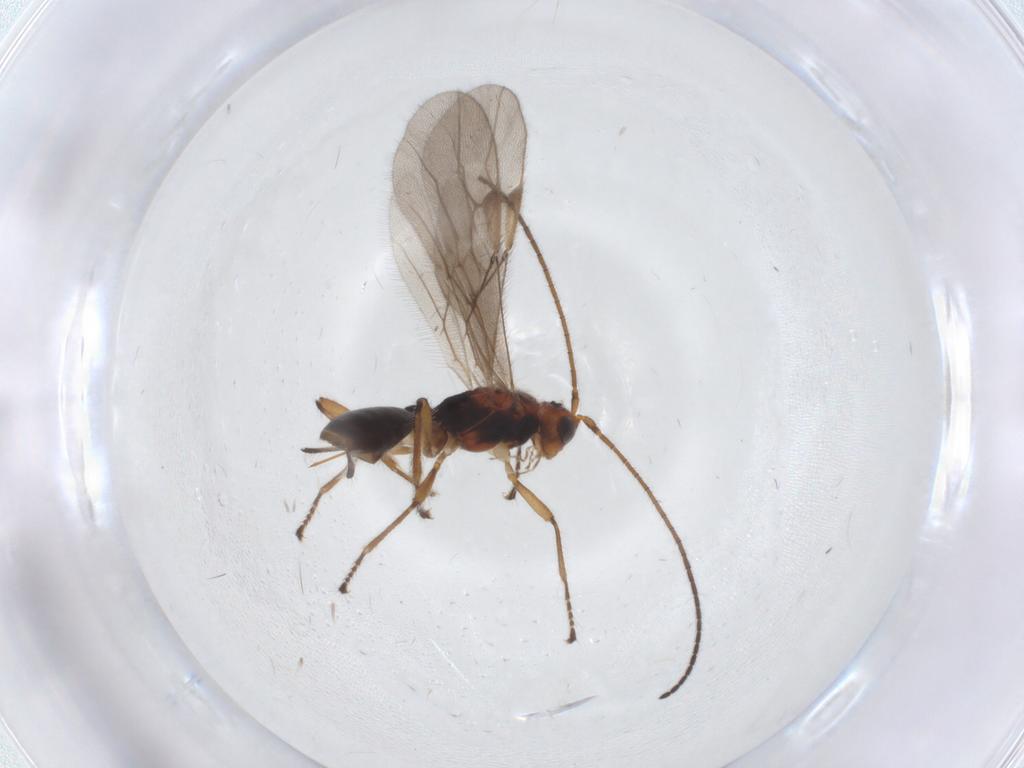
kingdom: Animalia
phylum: Arthropoda
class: Insecta
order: Hymenoptera
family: Braconidae
